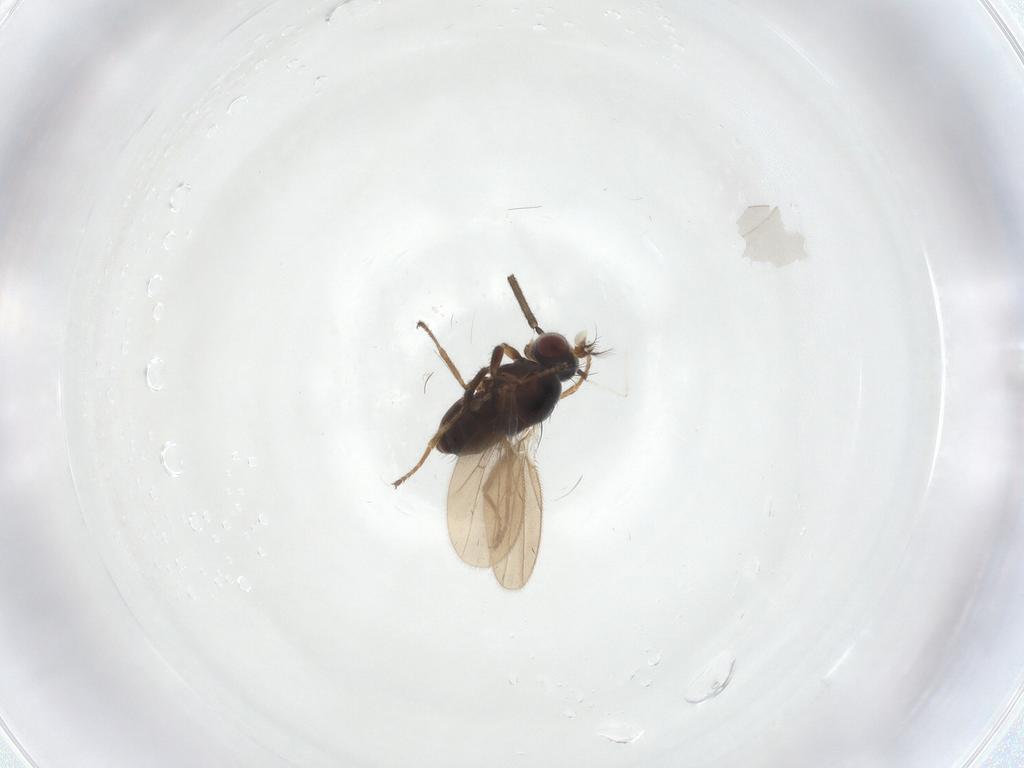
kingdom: Animalia
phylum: Arthropoda
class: Insecta
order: Diptera
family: Ephydridae
